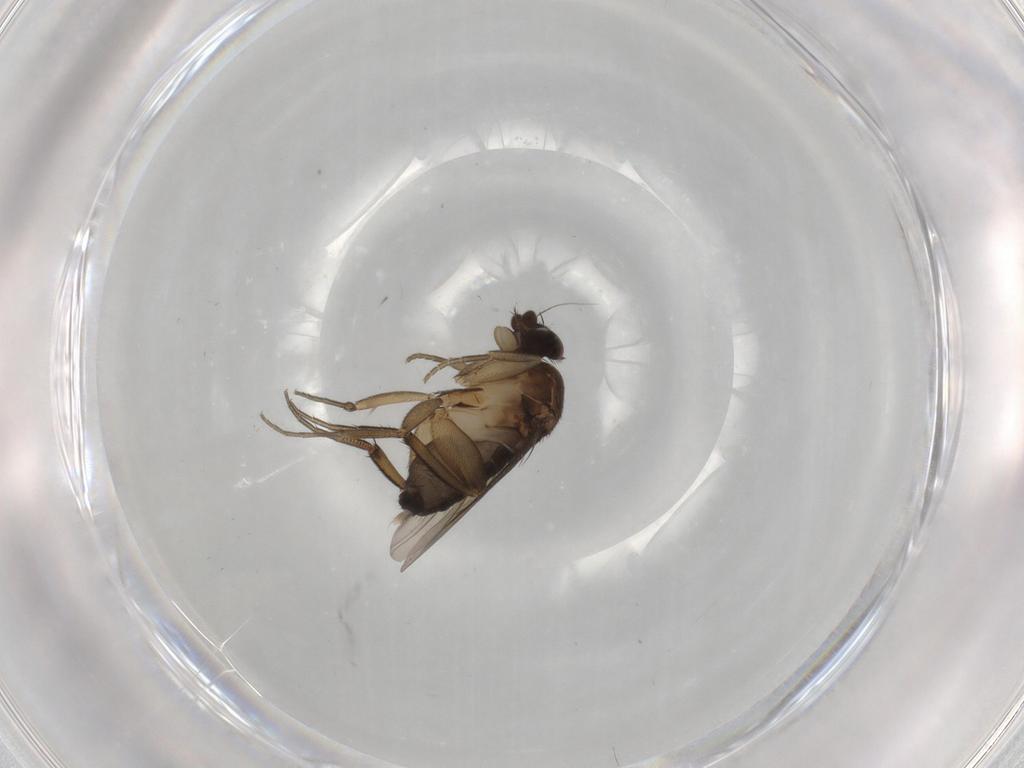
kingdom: Animalia
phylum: Arthropoda
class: Insecta
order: Diptera
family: Phoridae
